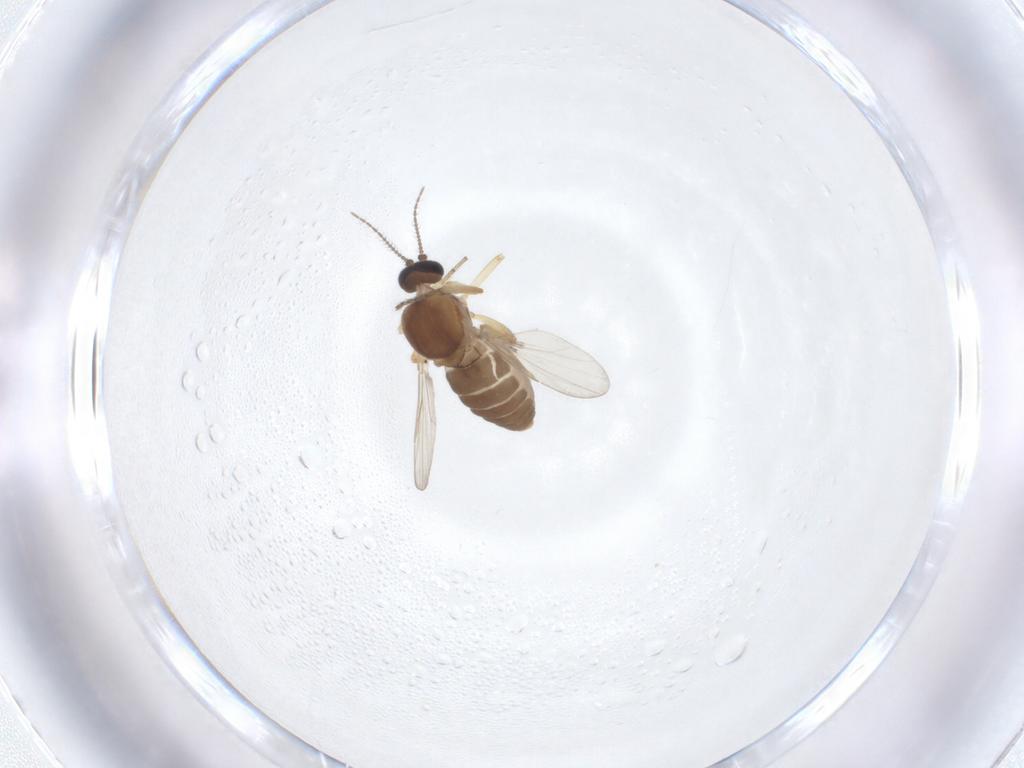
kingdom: Animalia
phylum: Arthropoda
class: Insecta
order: Diptera
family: Ceratopogonidae
